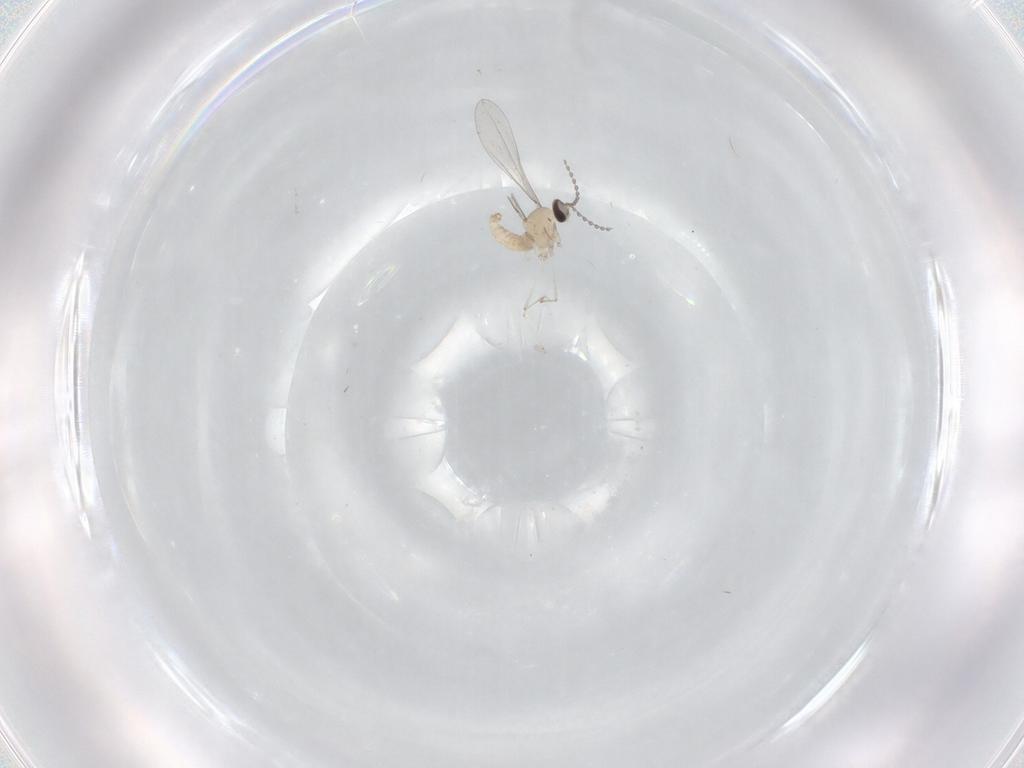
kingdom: Animalia
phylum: Arthropoda
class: Insecta
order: Diptera
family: Cecidomyiidae
